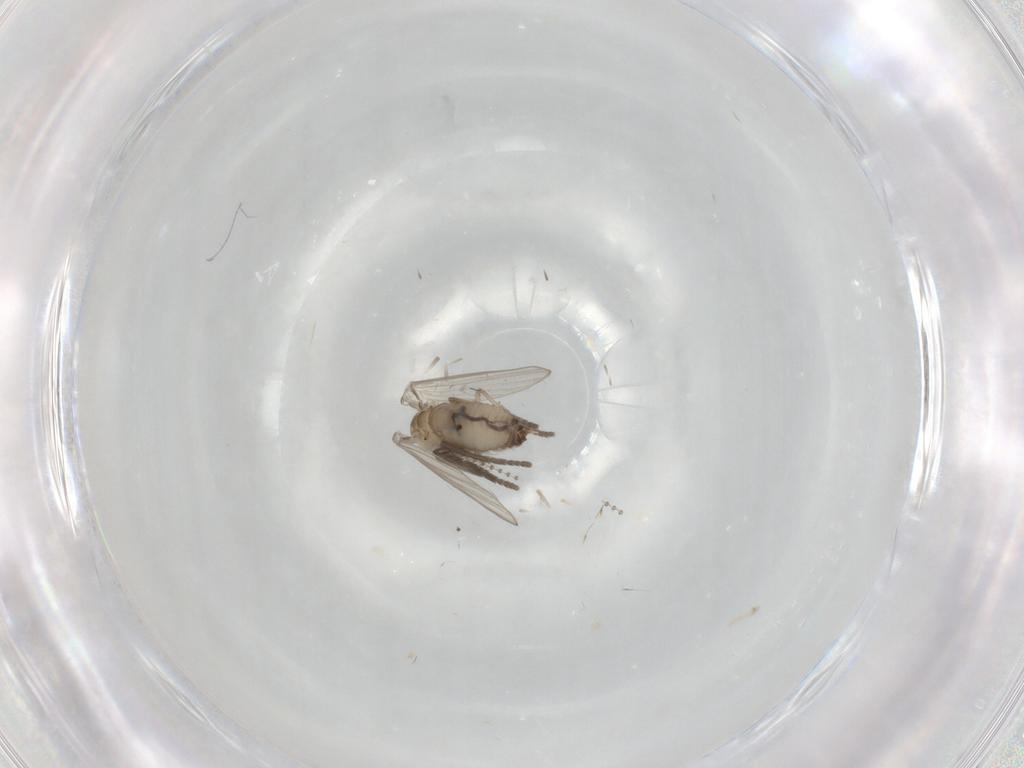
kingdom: Animalia
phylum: Arthropoda
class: Insecta
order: Diptera
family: Psychodidae
